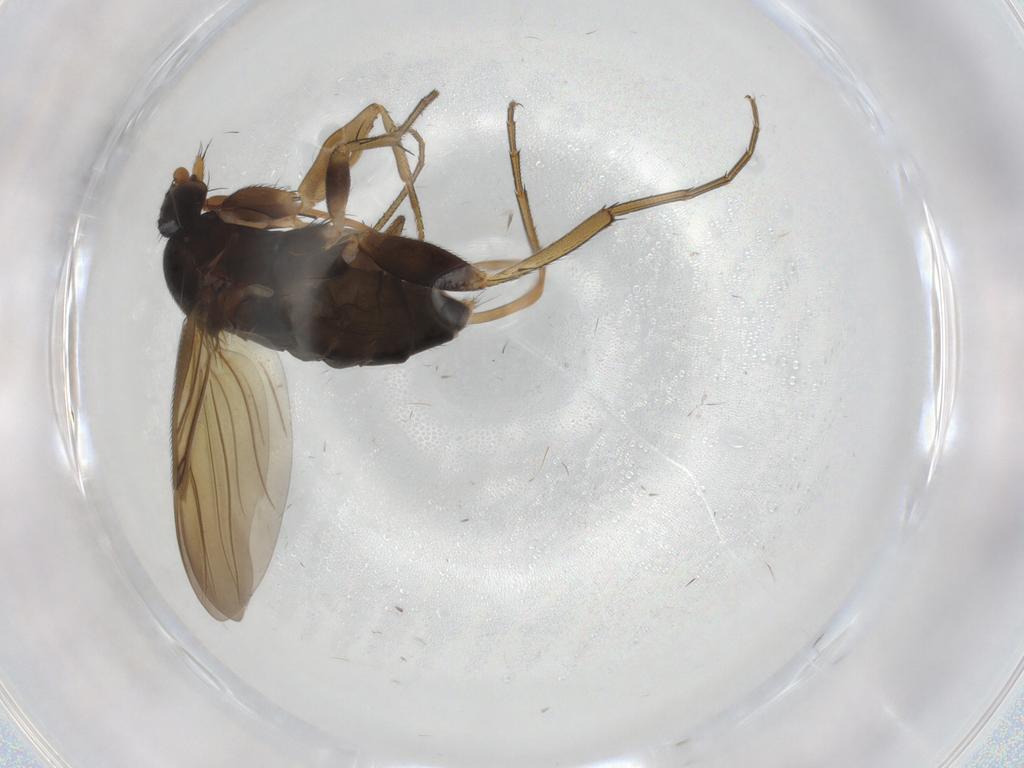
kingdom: Animalia
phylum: Arthropoda
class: Insecta
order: Diptera
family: Phoridae
